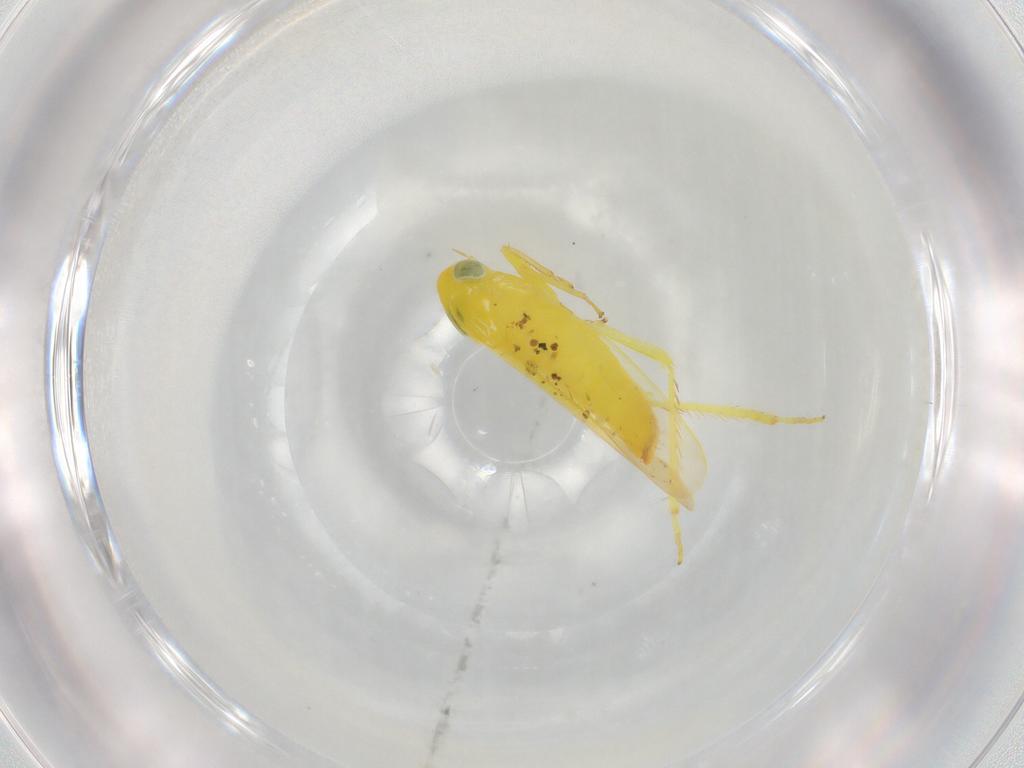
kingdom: Animalia
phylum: Arthropoda
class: Insecta
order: Hemiptera
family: Cicadellidae
